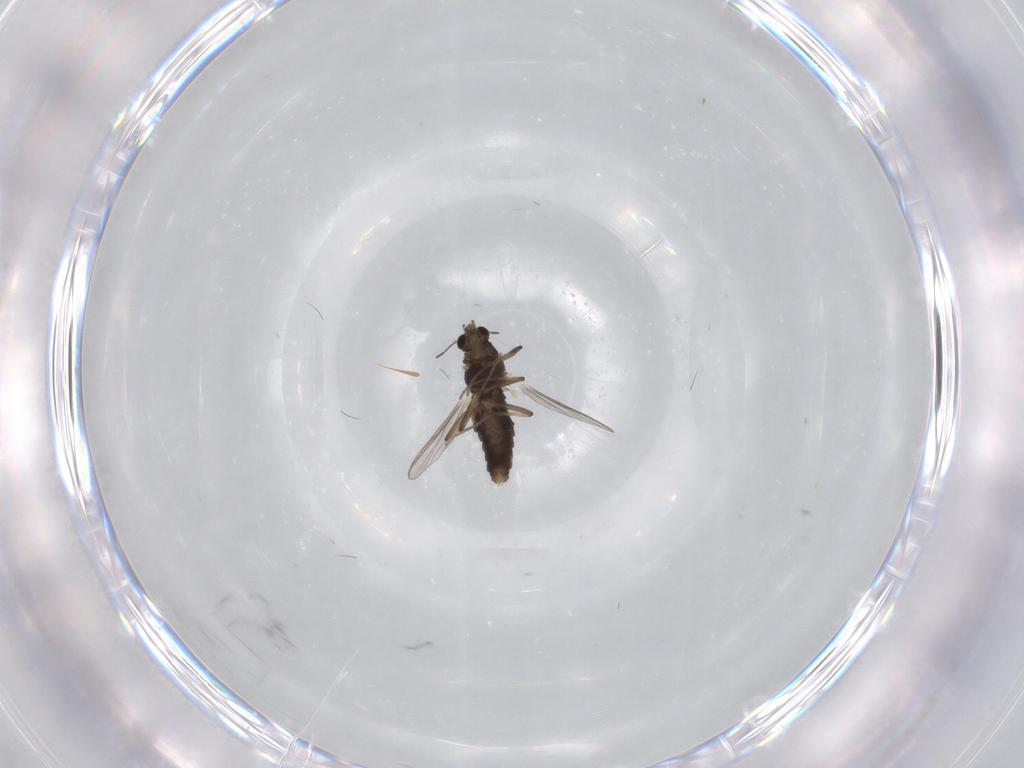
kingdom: Animalia
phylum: Arthropoda
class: Insecta
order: Diptera
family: Chironomidae
